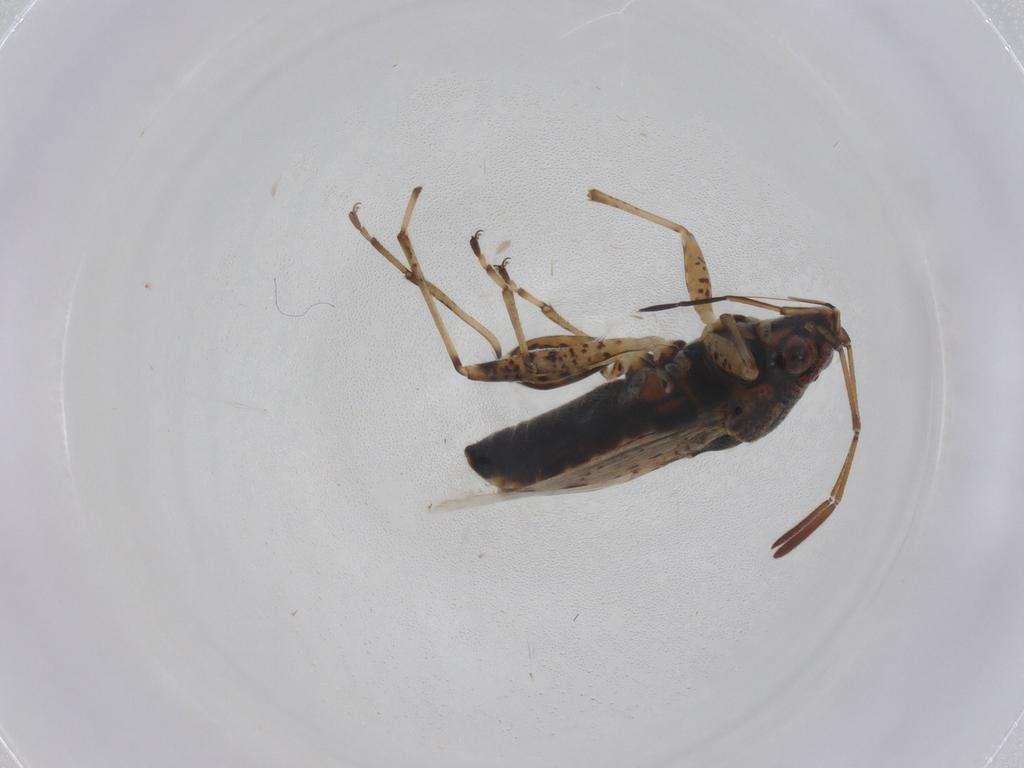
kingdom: Animalia
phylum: Arthropoda
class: Insecta
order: Hemiptera
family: Lygaeidae
